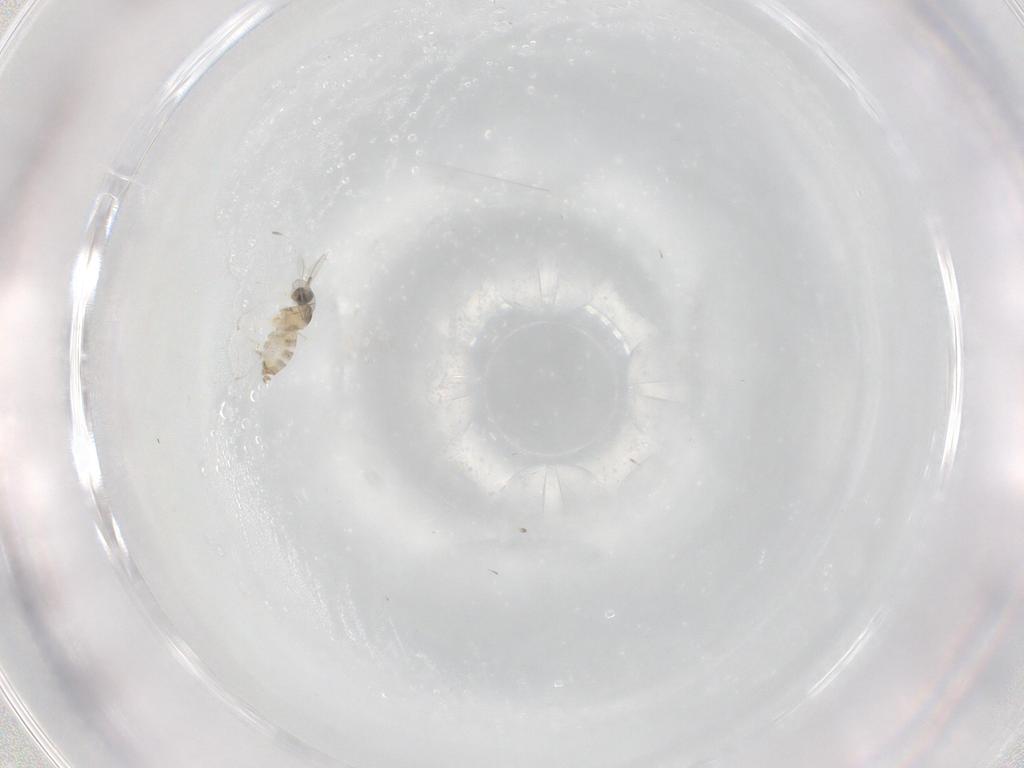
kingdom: Animalia
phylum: Arthropoda
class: Insecta
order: Diptera
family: Cecidomyiidae
